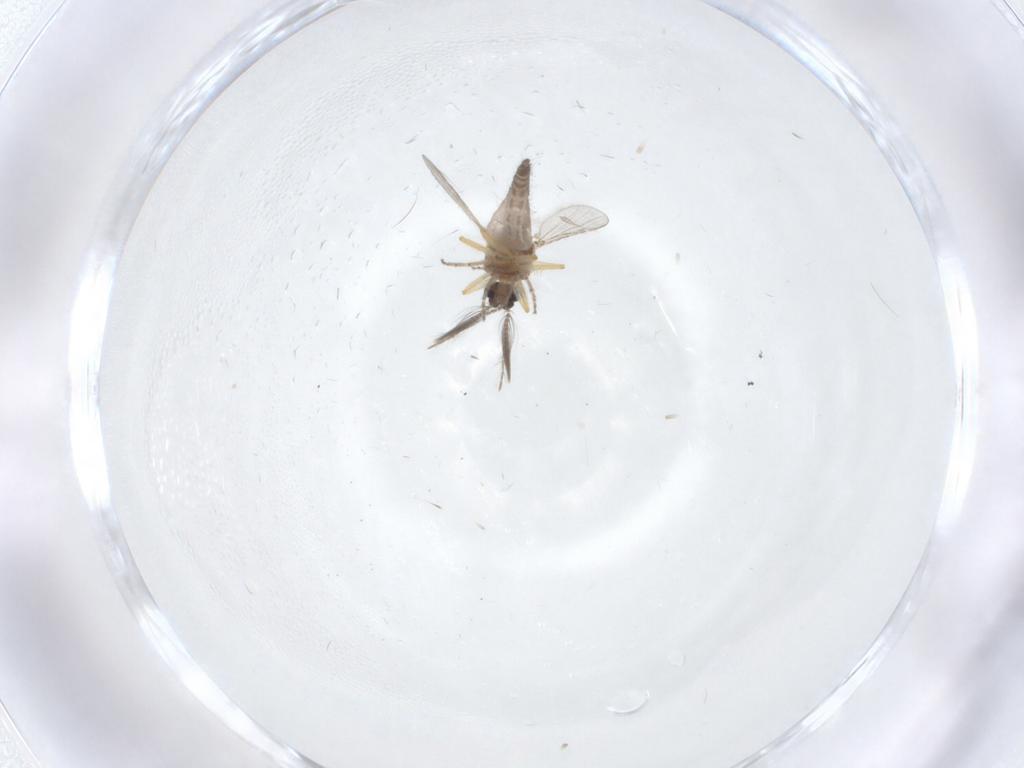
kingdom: Animalia
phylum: Arthropoda
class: Insecta
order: Diptera
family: Ceratopogonidae
